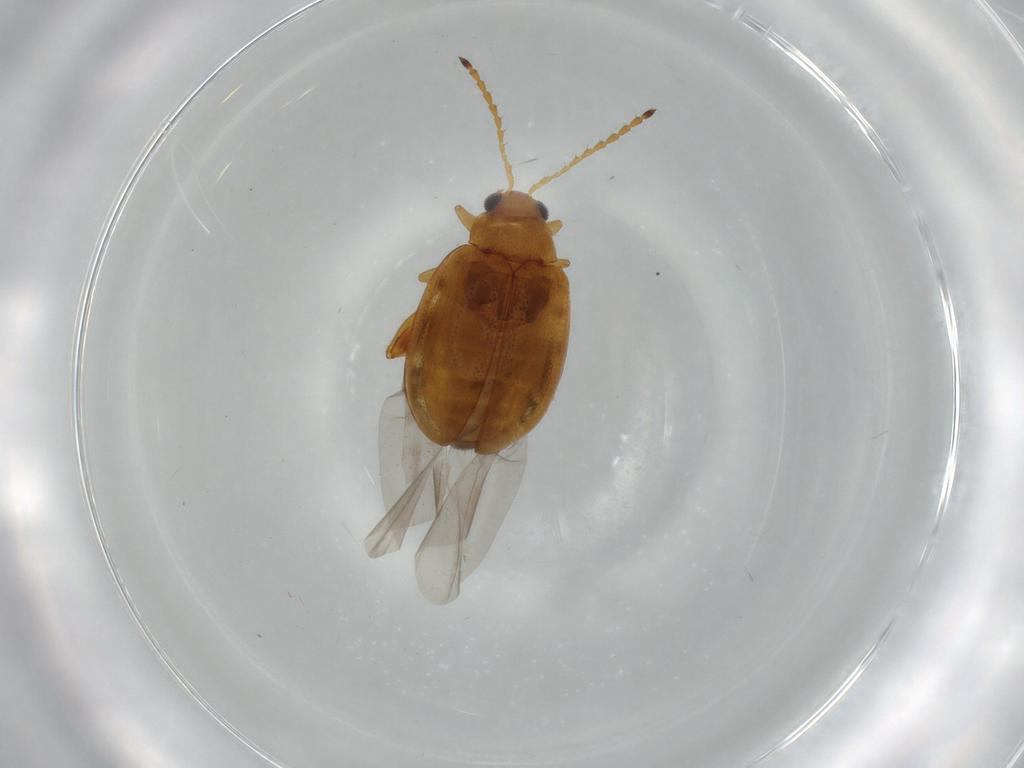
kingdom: Animalia
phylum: Arthropoda
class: Insecta
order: Coleoptera
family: Chrysomelidae
